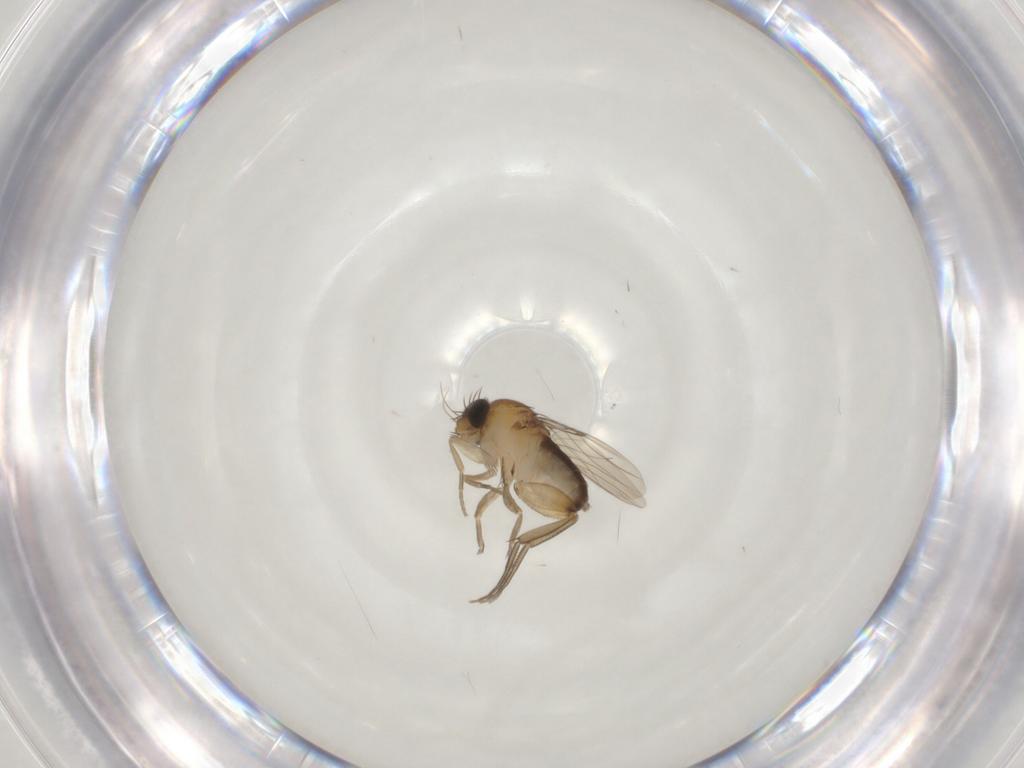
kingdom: Animalia
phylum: Arthropoda
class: Insecta
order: Diptera
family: Phoridae
